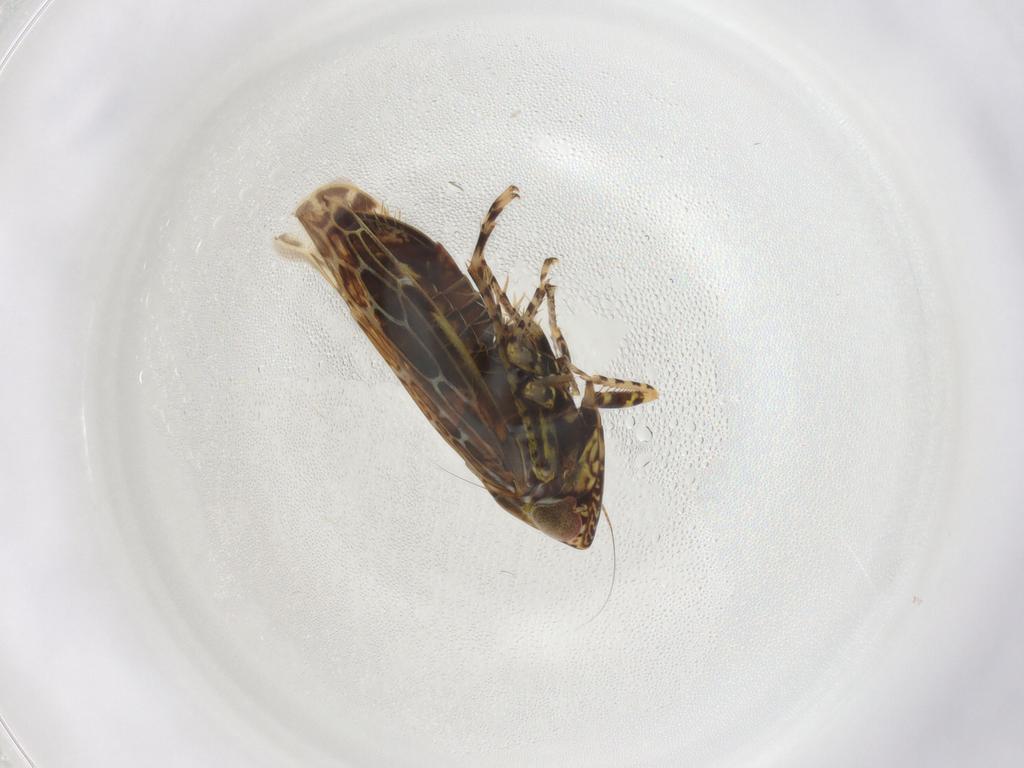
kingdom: Animalia
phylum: Arthropoda
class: Insecta
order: Hemiptera
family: Cicadellidae
